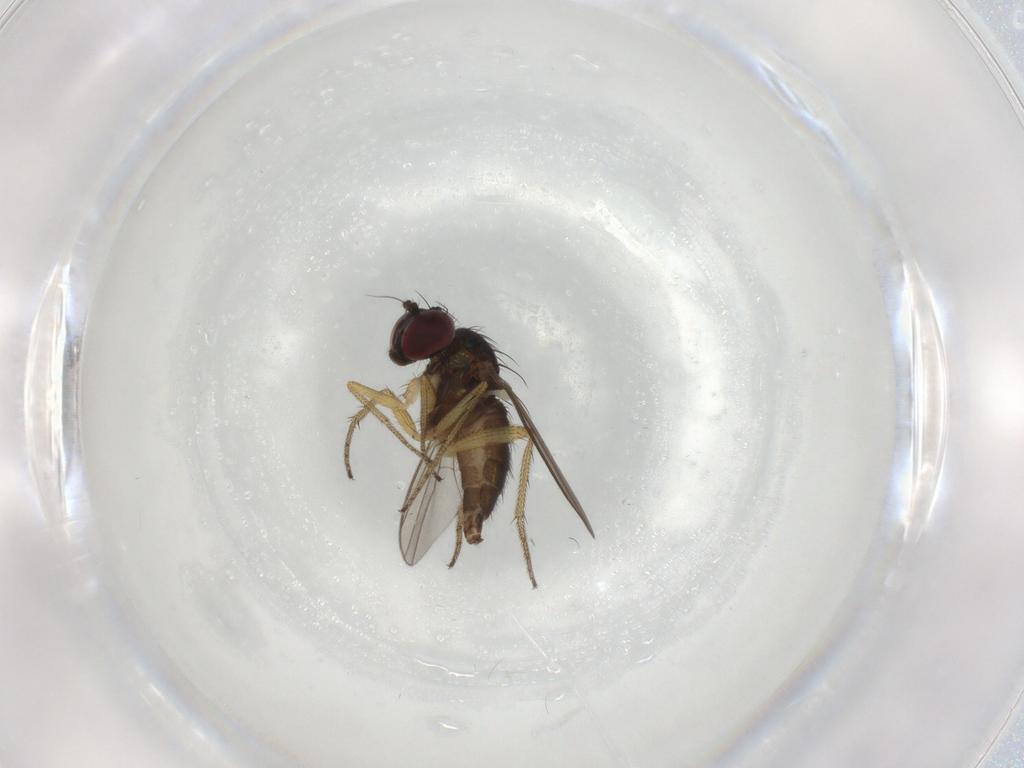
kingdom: Animalia
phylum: Arthropoda
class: Insecta
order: Diptera
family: Dolichopodidae
